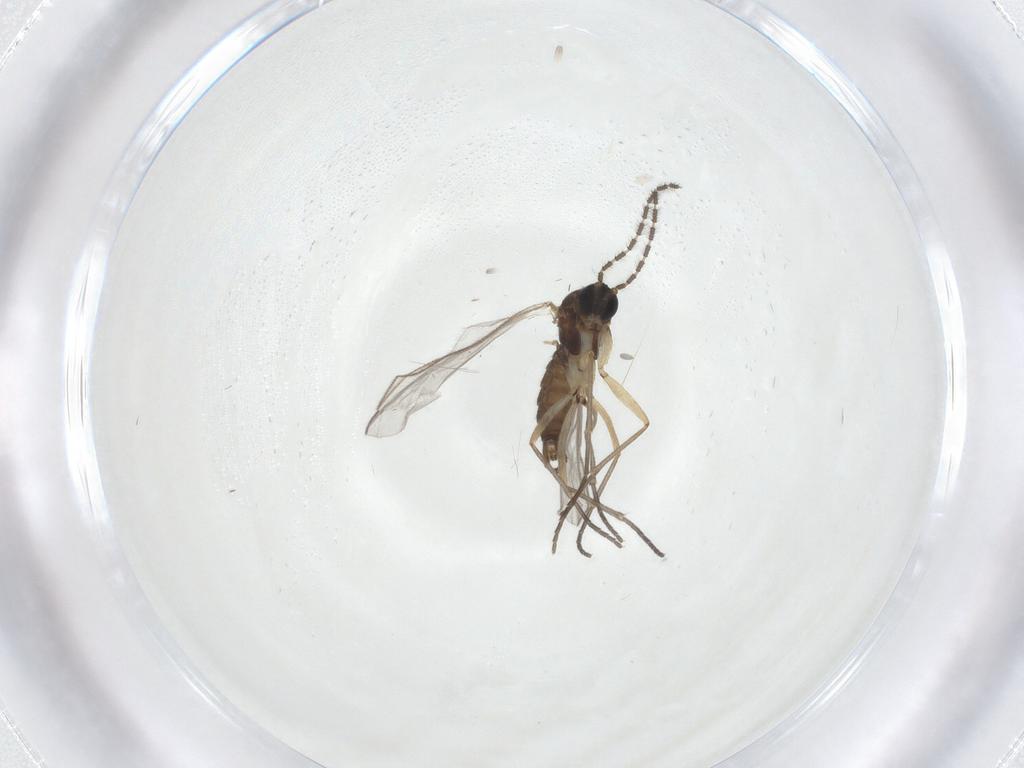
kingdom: Animalia
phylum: Arthropoda
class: Insecta
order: Diptera
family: Sciaridae
